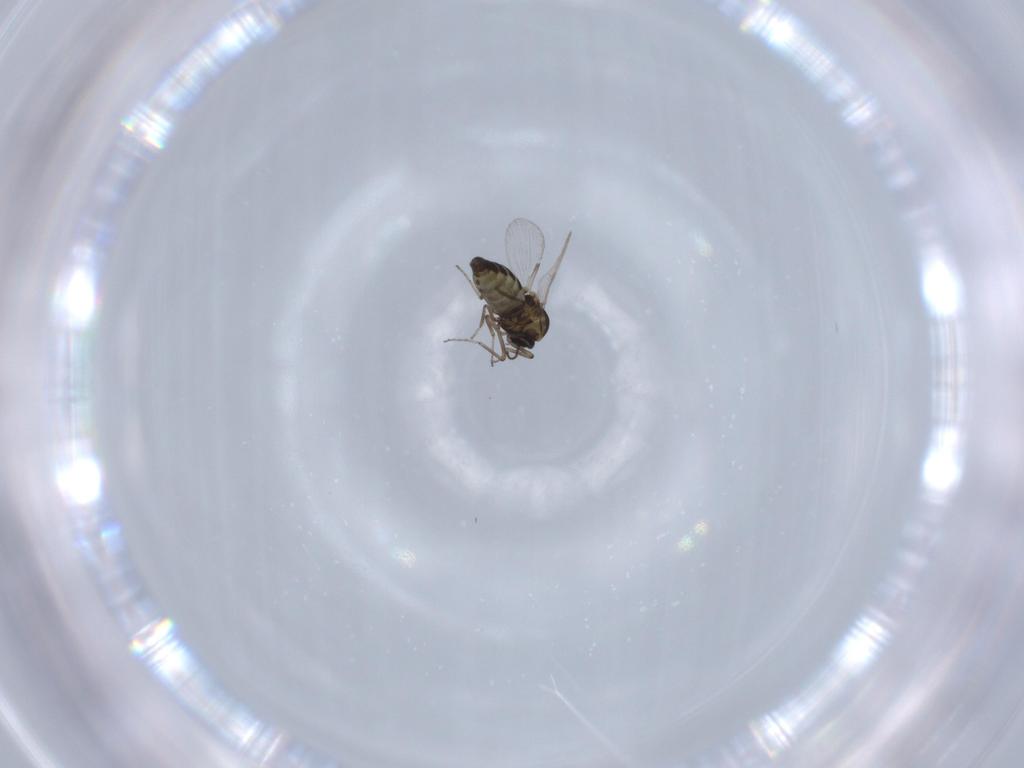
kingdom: Animalia
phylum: Arthropoda
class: Insecta
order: Diptera
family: Ceratopogonidae
